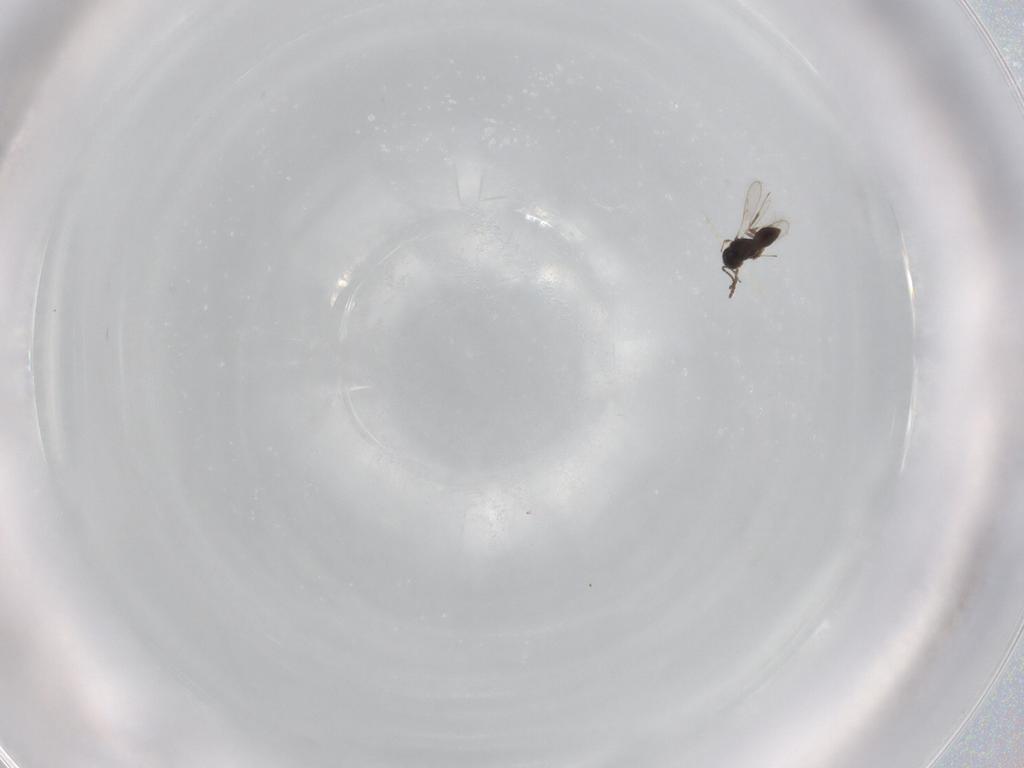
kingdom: Animalia
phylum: Arthropoda
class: Insecta
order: Hymenoptera
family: Scelionidae
